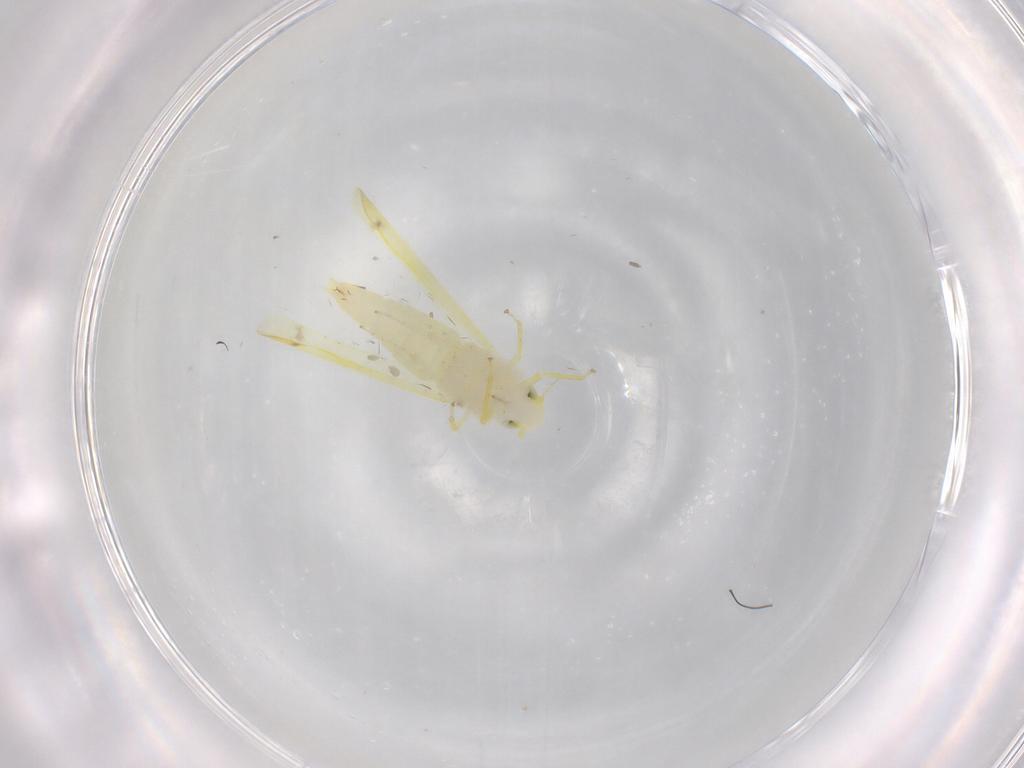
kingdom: Animalia
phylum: Arthropoda
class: Insecta
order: Hemiptera
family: Cicadellidae
